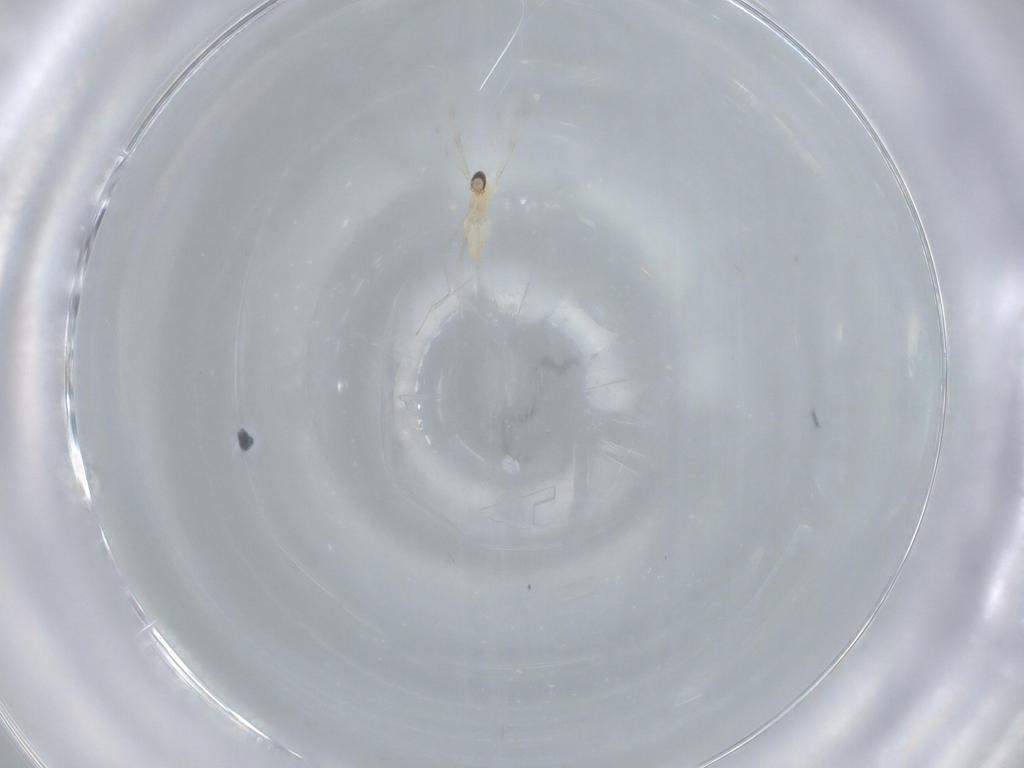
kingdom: Animalia
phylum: Arthropoda
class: Insecta
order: Diptera
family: Cecidomyiidae
